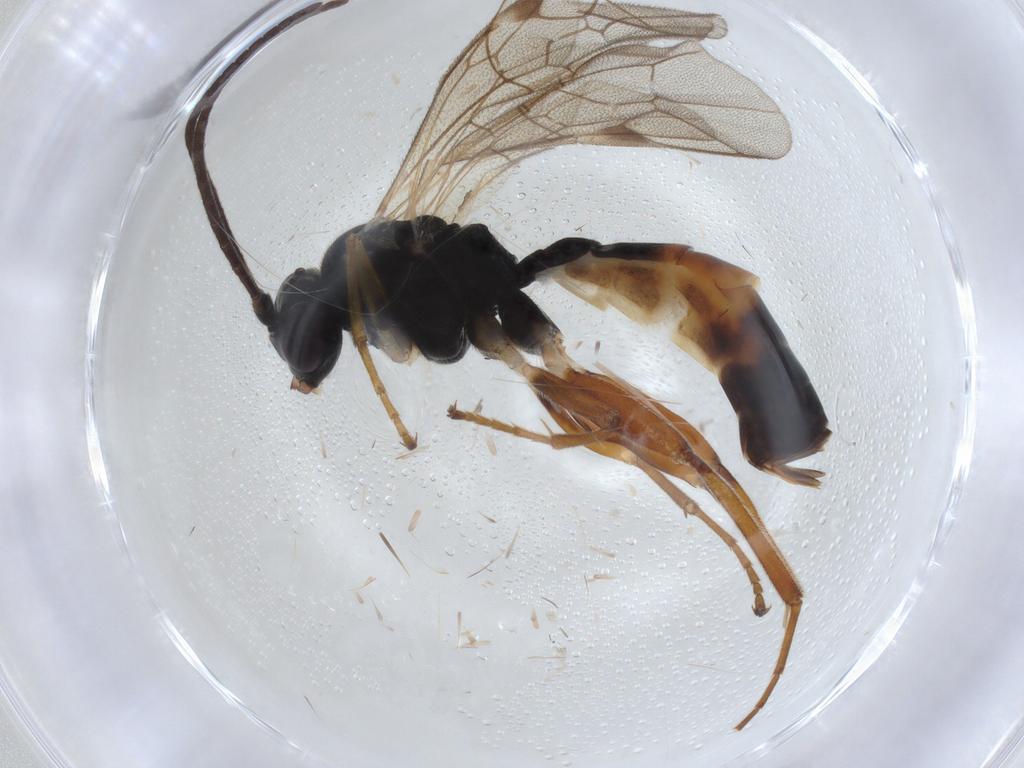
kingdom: Animalia
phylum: Arthropoda
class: Insecta
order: Hymenoptera
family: Ichneumonidae
